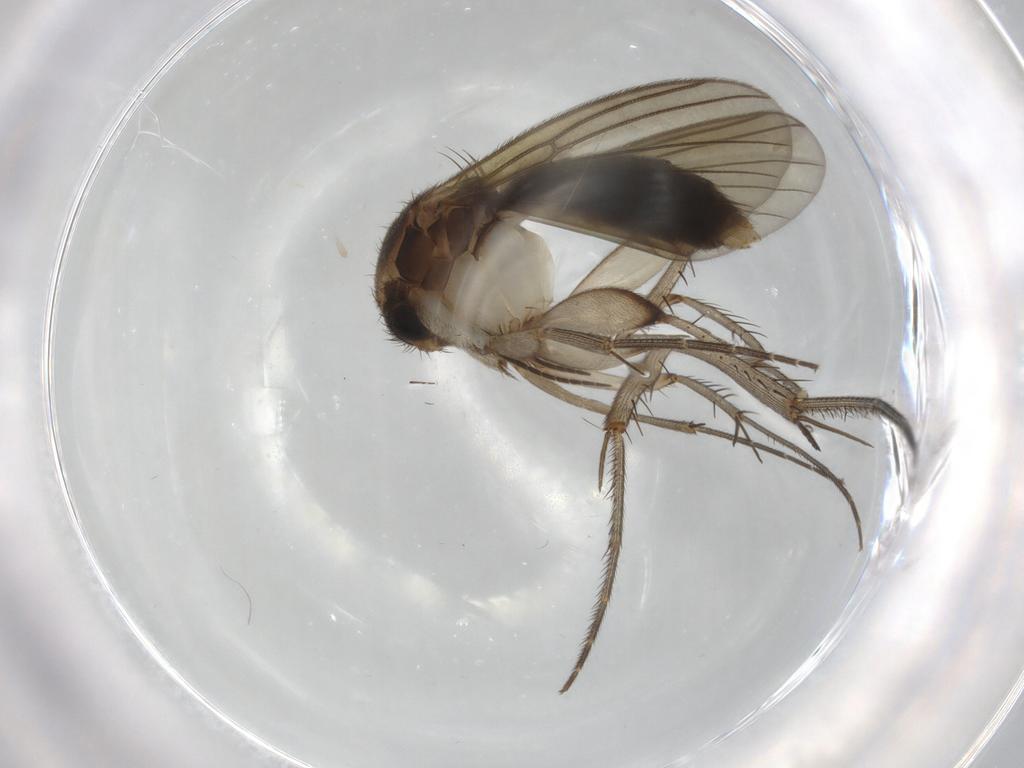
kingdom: Animalia
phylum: Arthropoda
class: Insecta
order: Diptera
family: Mycetophilidae
